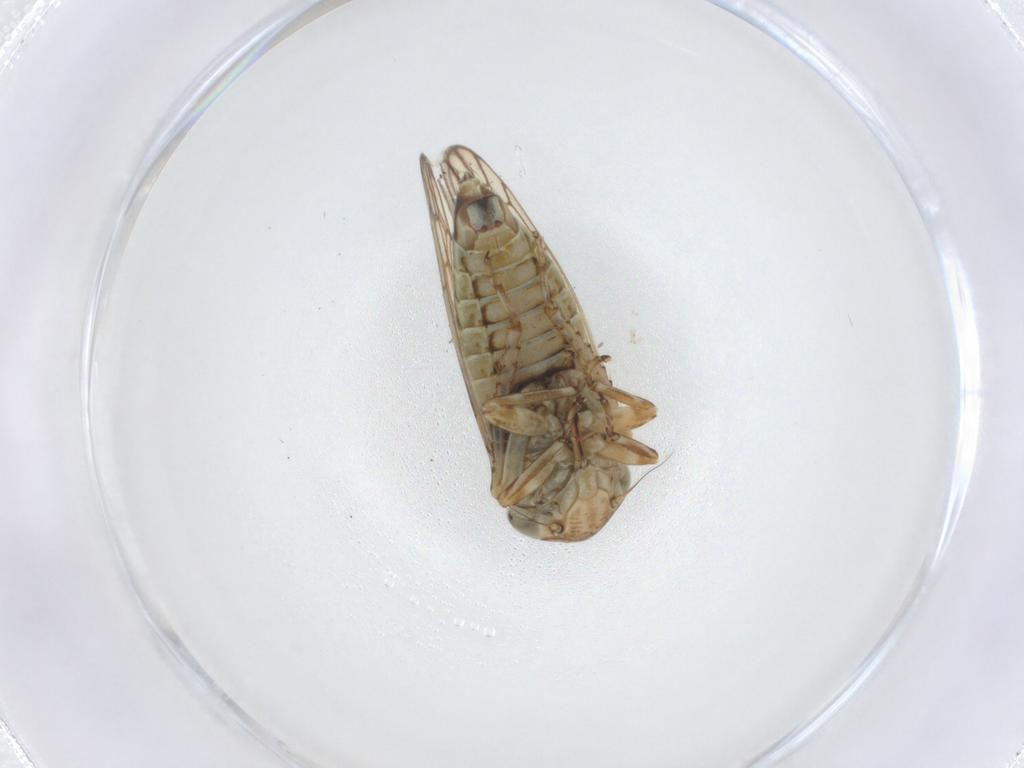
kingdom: Animalia
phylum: Arthropoda
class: Insecta
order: Hemiptera
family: Cicadellidae
